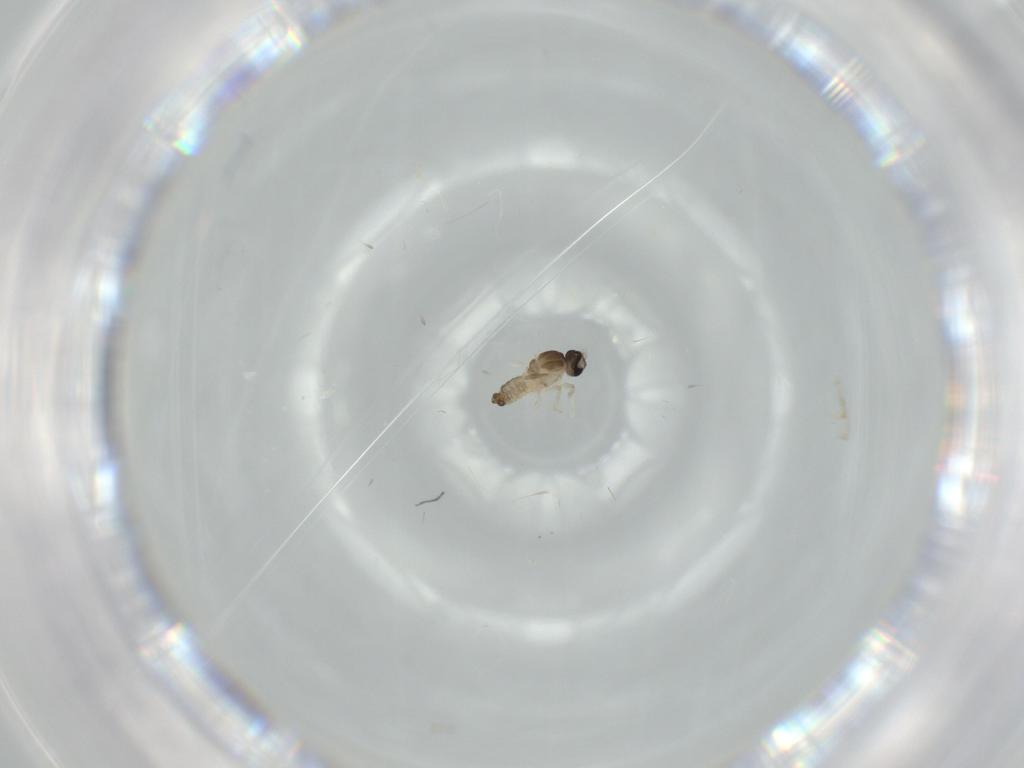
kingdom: Animalia
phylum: Arthropoda
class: Insecta
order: Diptera
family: Cecidomyiidae
